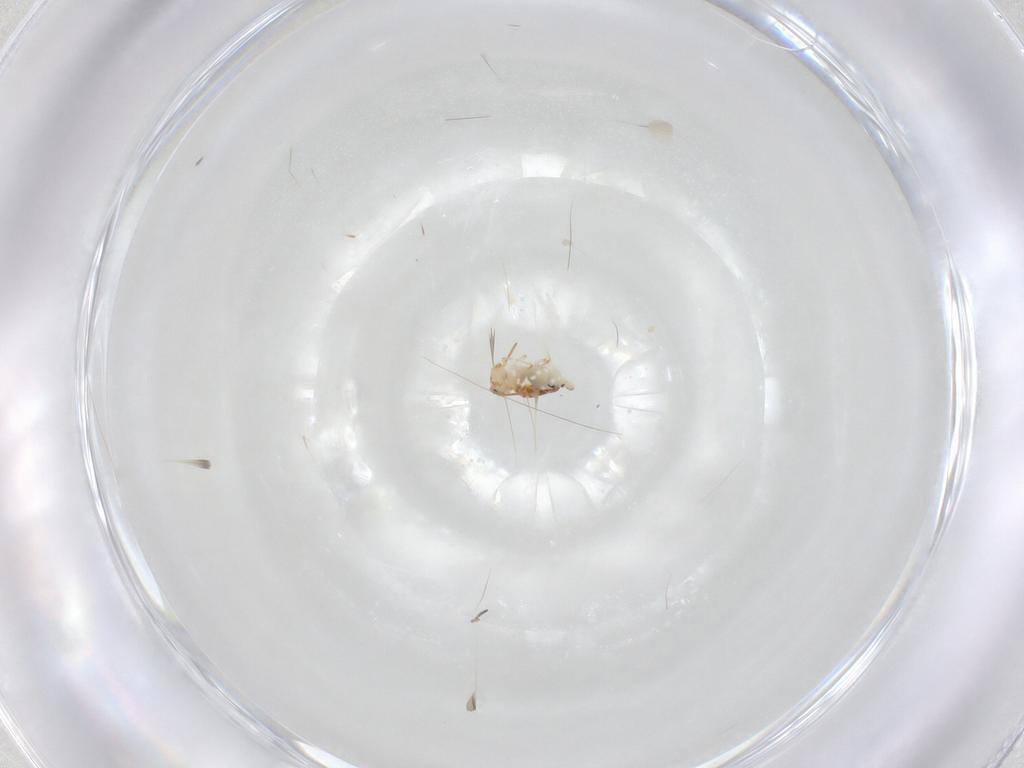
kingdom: Animalia
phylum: Arthropoda
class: Collembola
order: Symphypleona
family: Bourletiellidae
